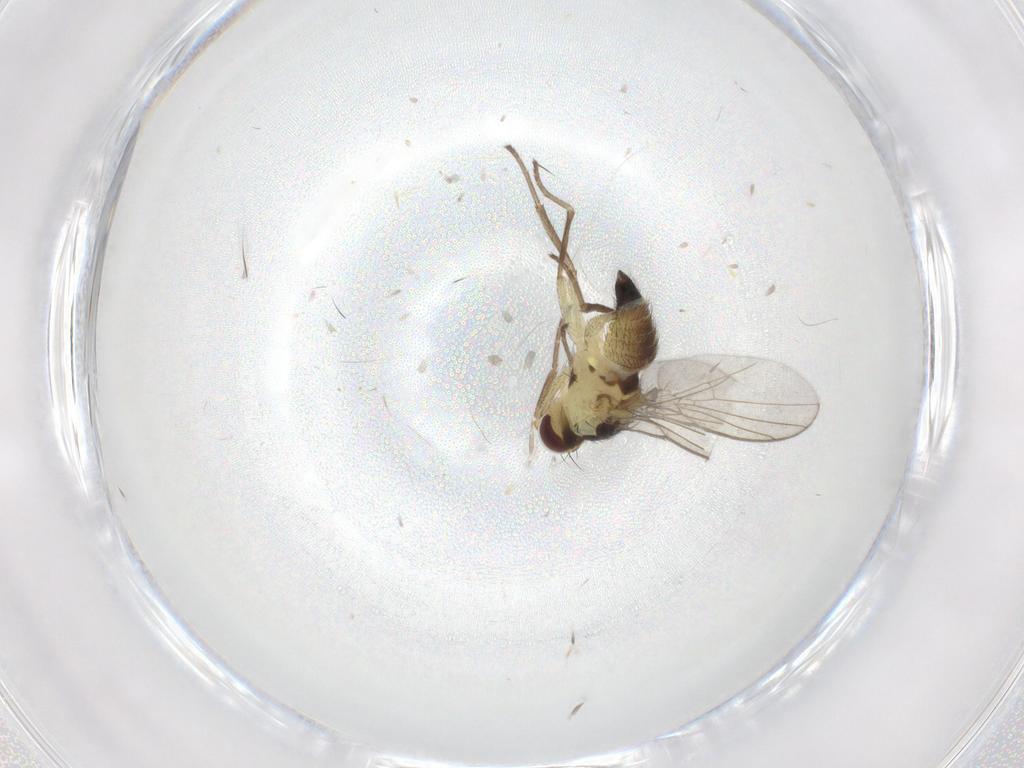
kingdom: Animalia
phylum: Arthropoda
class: Insecta
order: Diptera
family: Agromyzidae
